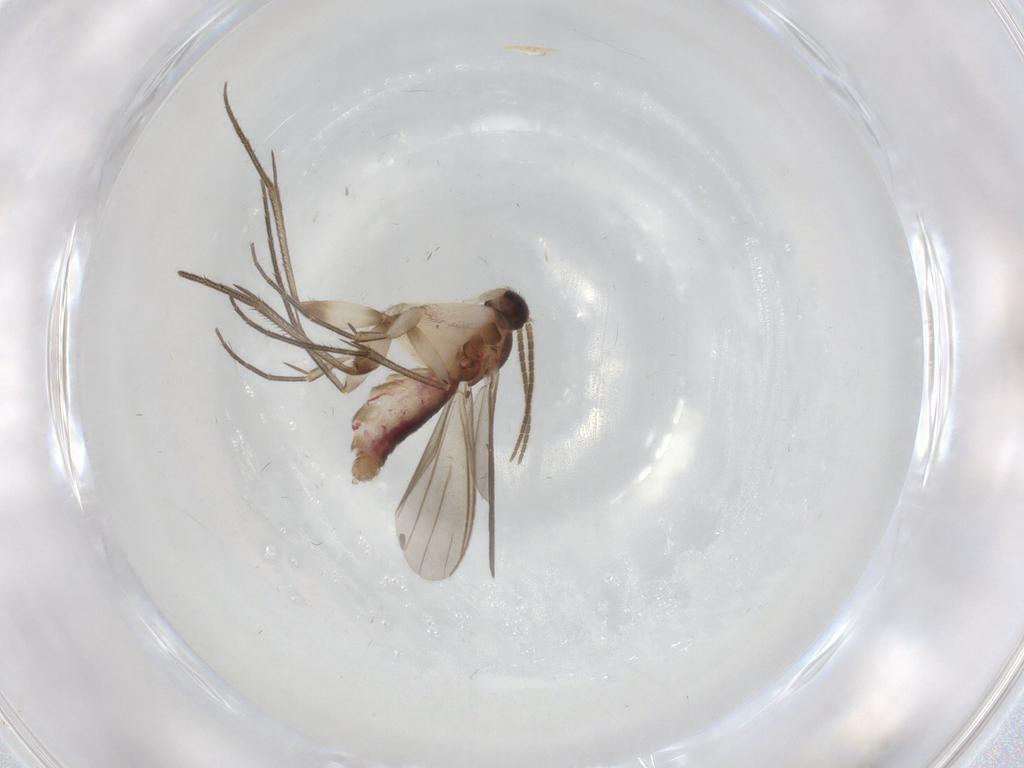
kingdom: Animalia
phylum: Arthropoda
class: Insecta
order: Diptera
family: Mycetophilidae
